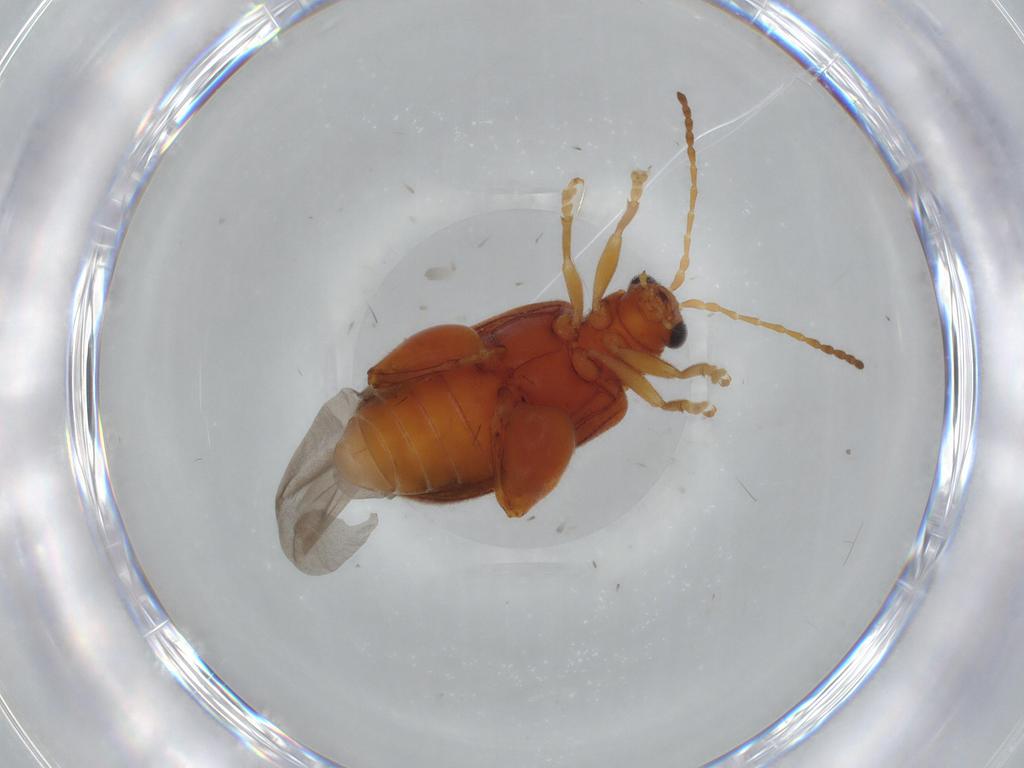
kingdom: Animalia
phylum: Arthropoda
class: Insecta
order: Coleoptera
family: Chrysomelidae
